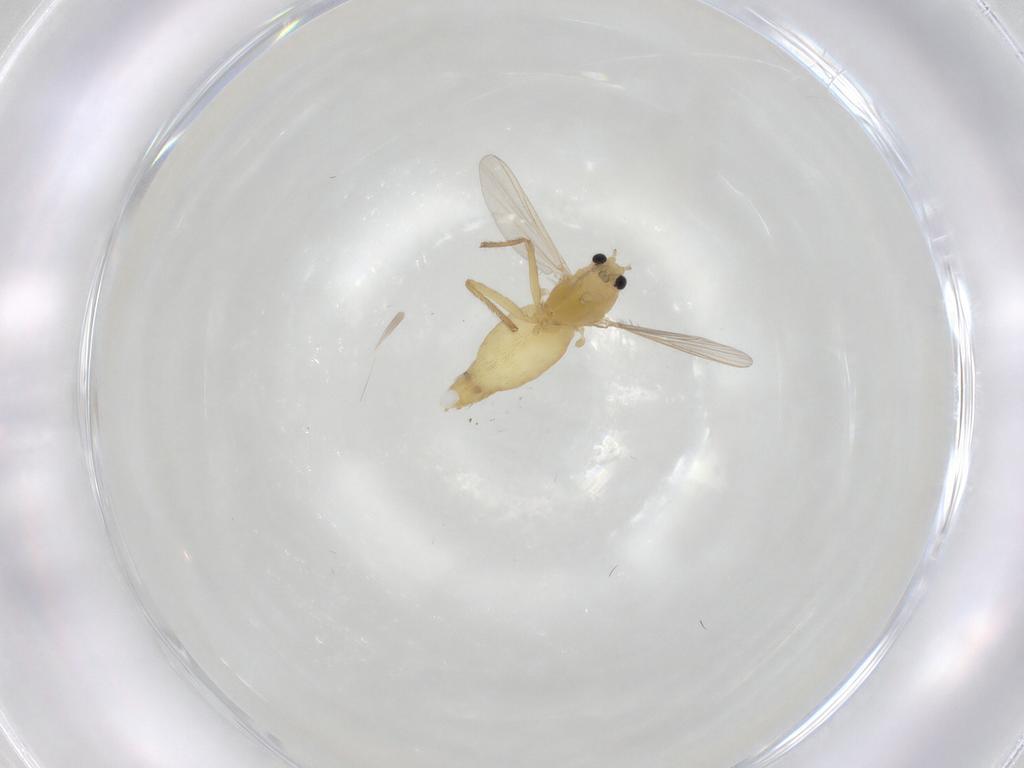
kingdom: Animalia
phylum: Arthropoda
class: Insecta
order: Diptera
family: Chironomidae
